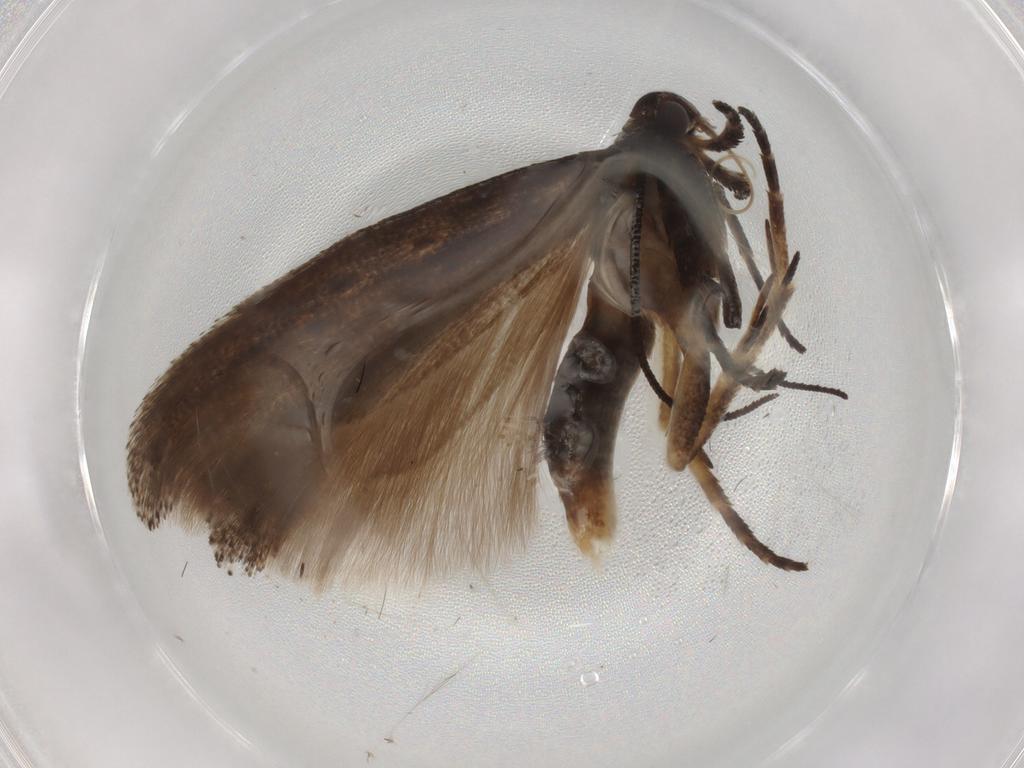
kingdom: Animalia
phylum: Arthropoda
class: Insecta
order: Lepidoptera
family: Gelechiidae
